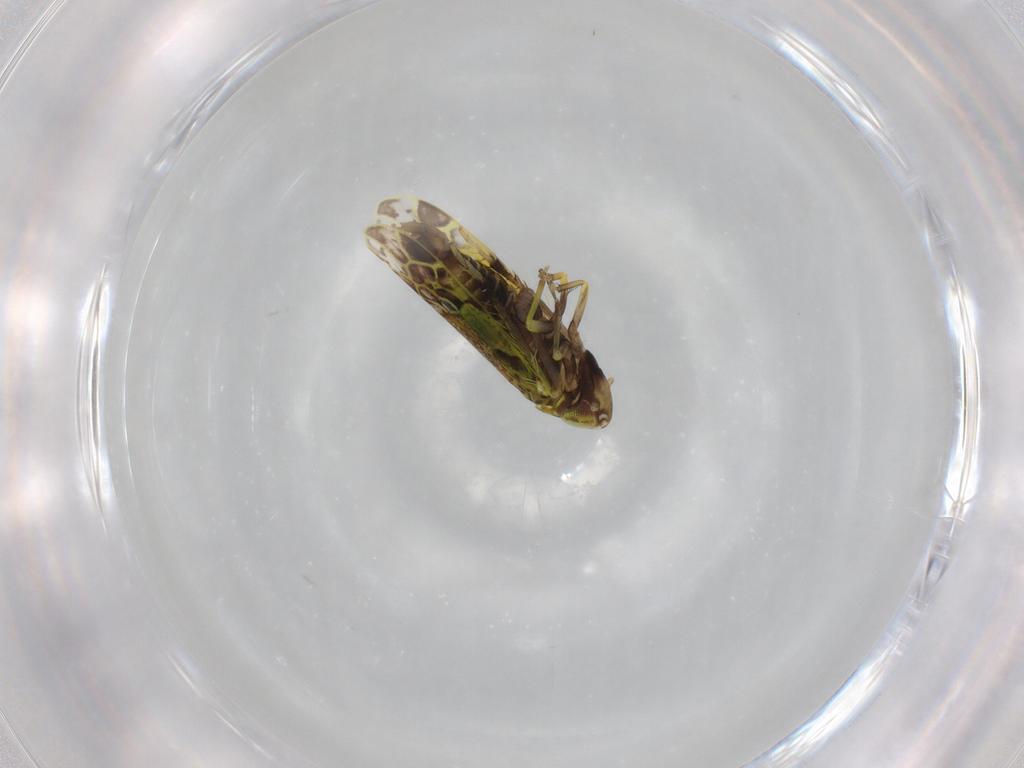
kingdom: Animalia
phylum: Arthropoda
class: Insecta
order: Hemiptera
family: Cicadellidae
